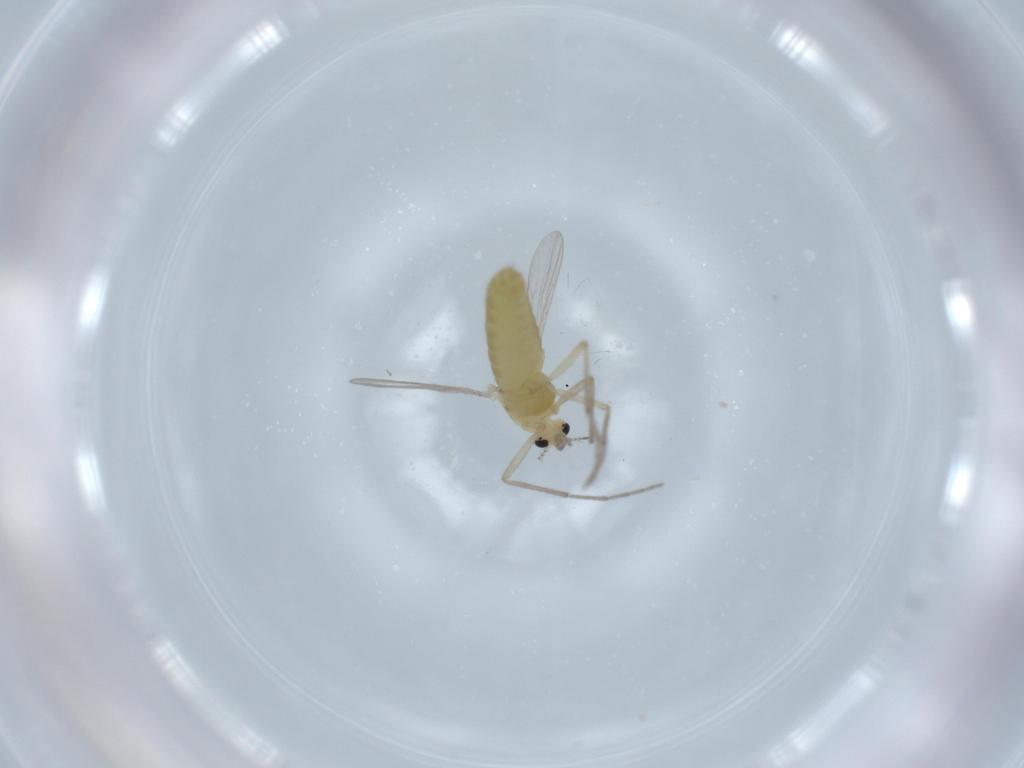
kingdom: Animalia
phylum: Arthropoda
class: Insecta
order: Diptera
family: Chironomidae
